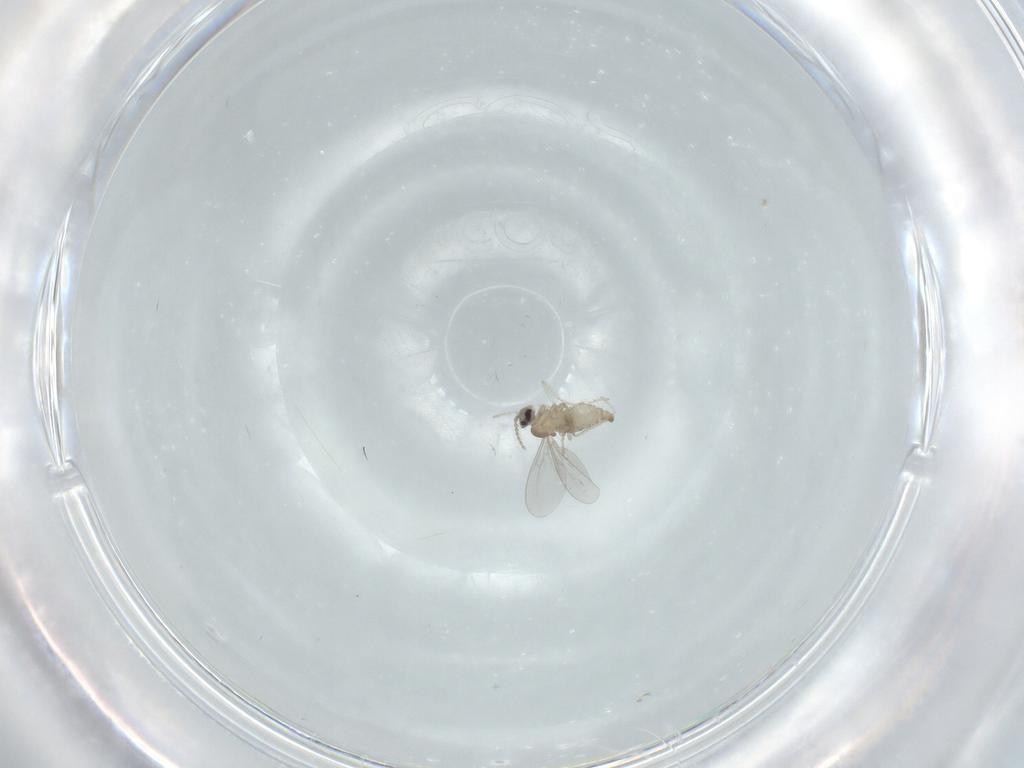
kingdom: Animalia
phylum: Arthropoda
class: Insecta
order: Diptera
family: Cecidomyiidae
